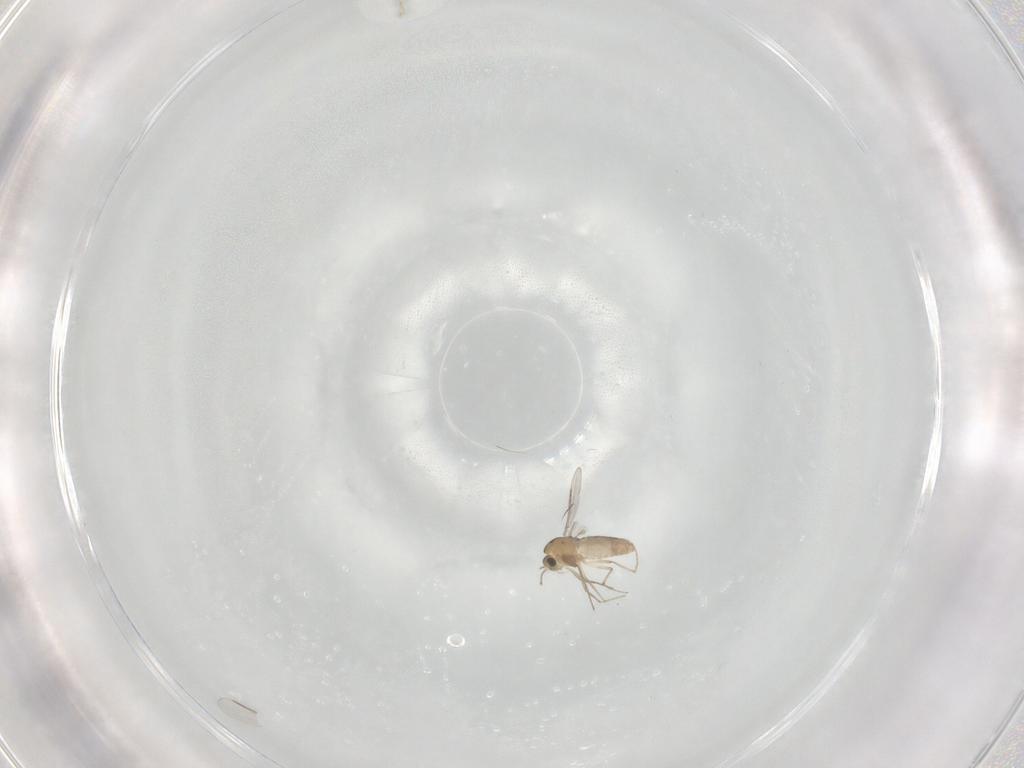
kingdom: Animalia
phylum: Arthropoda
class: Insecta
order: Diptera
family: Chironomidae
